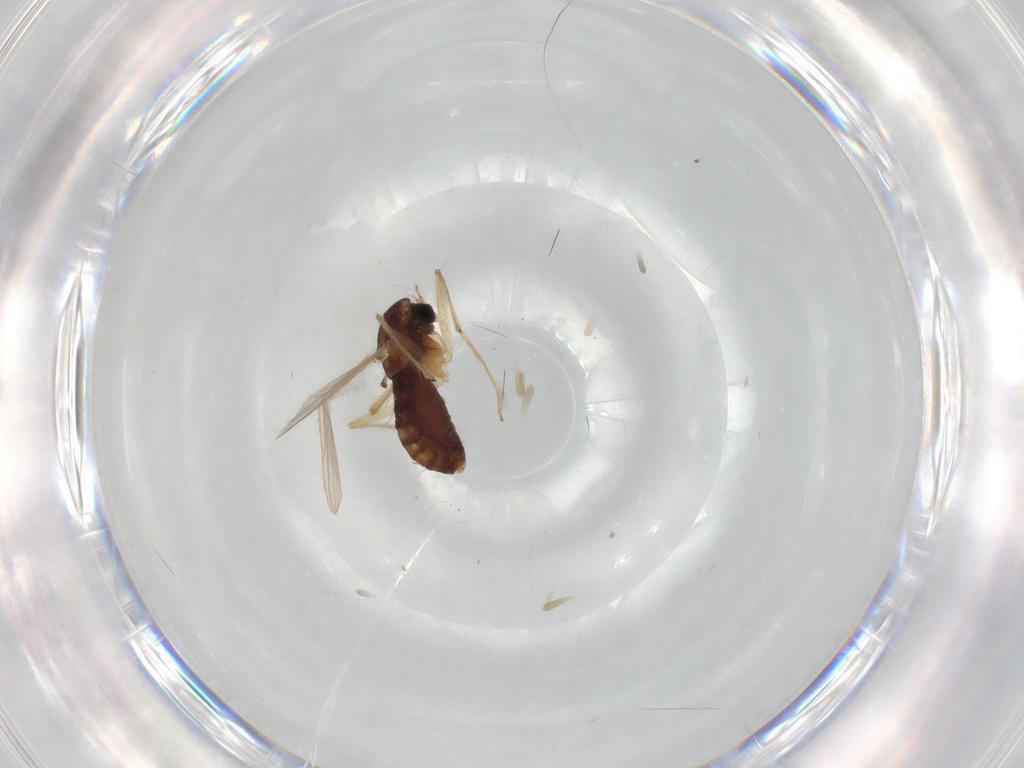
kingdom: Animalia
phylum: Arthropoda
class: Insecta
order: Diptera
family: Chironomidae
